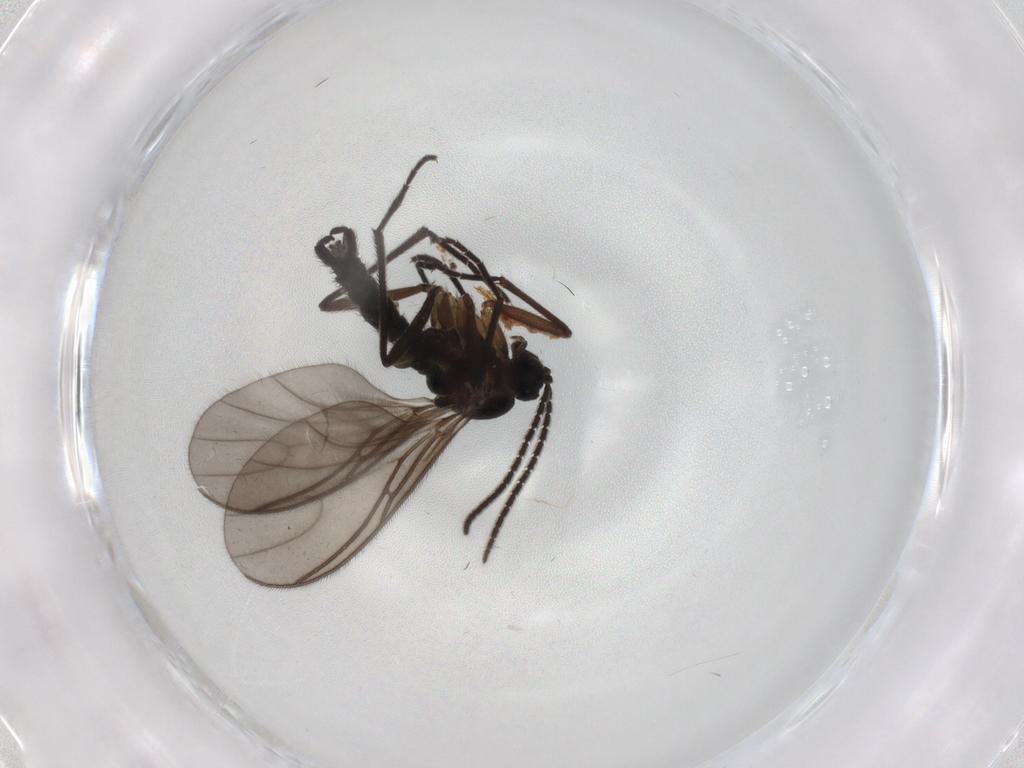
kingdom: Animalia
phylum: Arthropoda
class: Insecta
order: Diptera
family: Sciaridae
